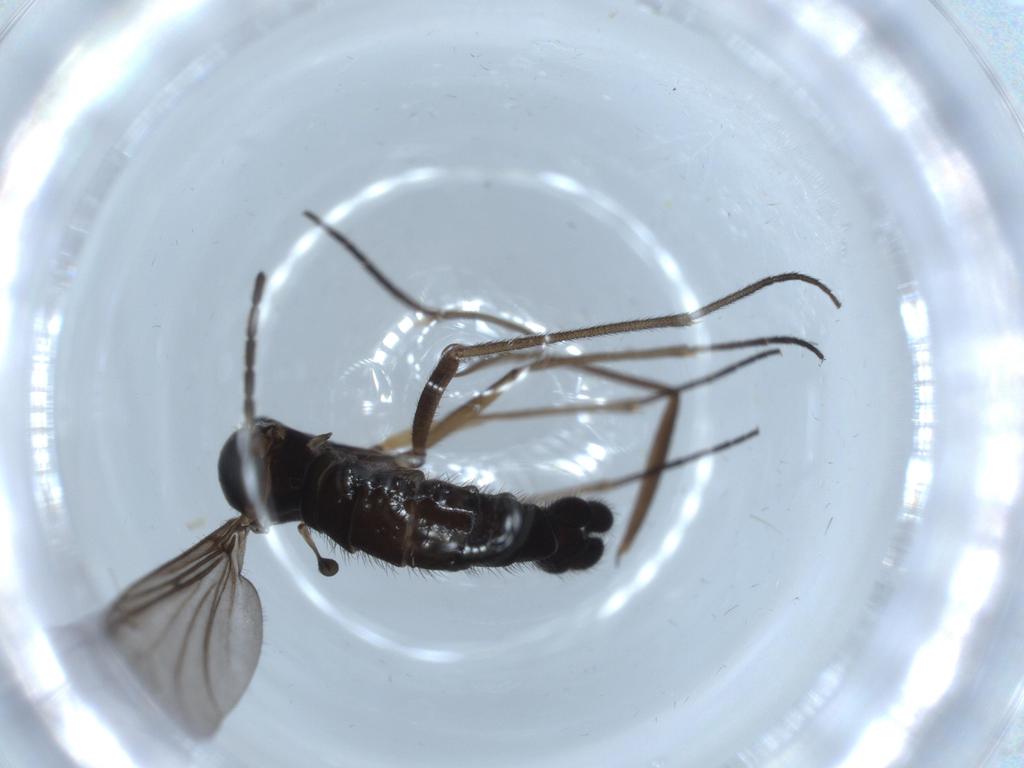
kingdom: Animalia
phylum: Arthropoda
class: Insecta
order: Diptera
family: Sciaridae
